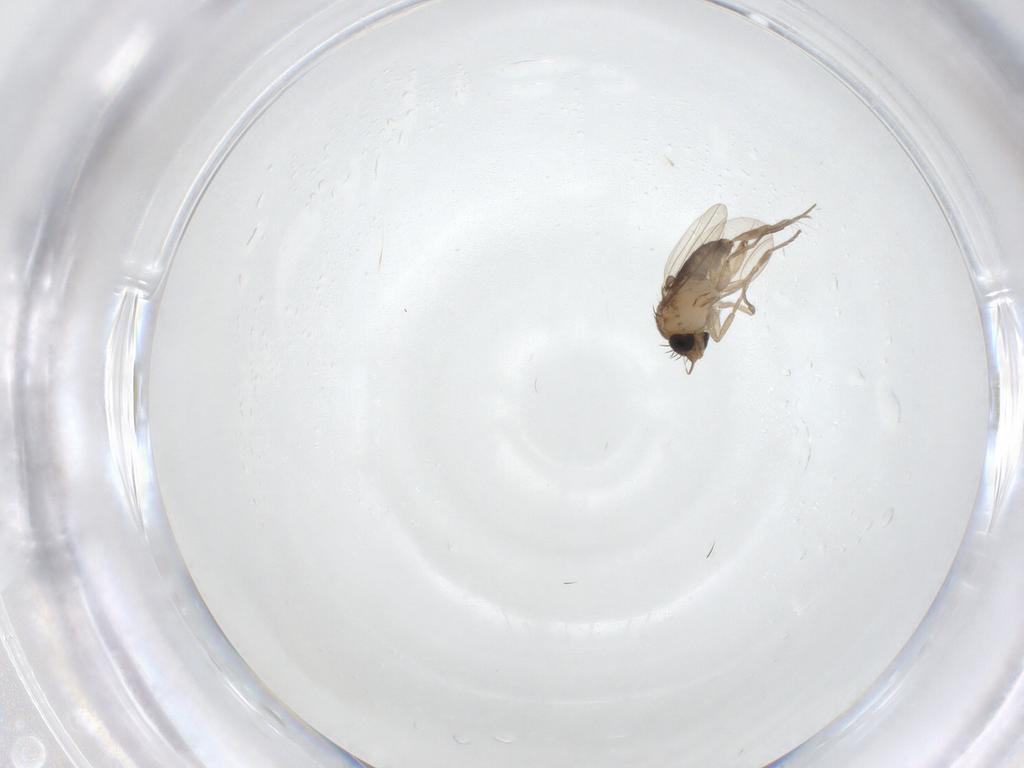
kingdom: Animalia
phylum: Arthropoda
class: Insecta
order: Diptera
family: Phoridae
